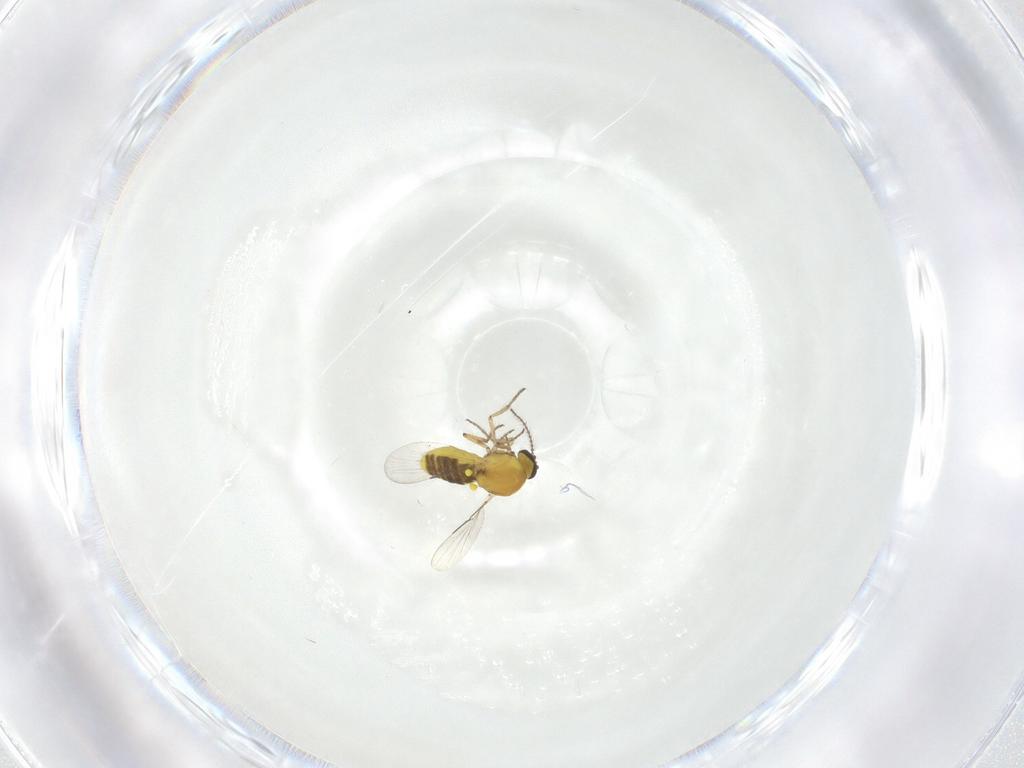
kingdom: Animalia
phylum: Arthropoda
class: Insecta
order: Diptera
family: Ceratopogonidae
